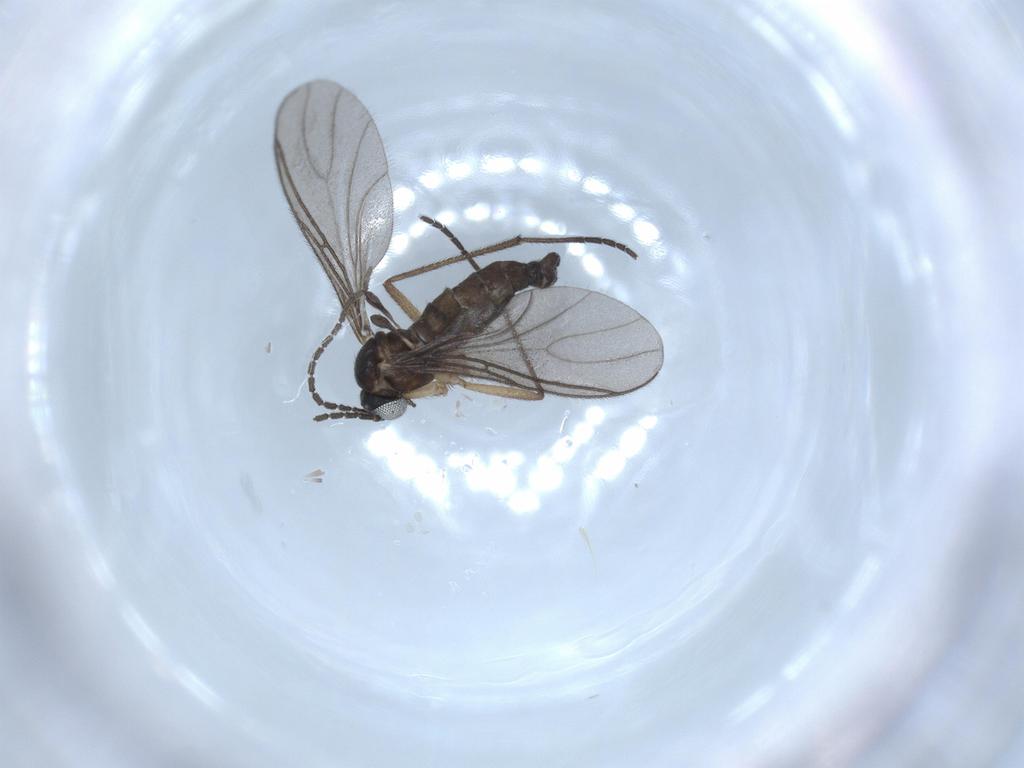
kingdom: Animalia
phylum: Arthropoda
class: Insecta
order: Diptera
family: Sciaridae
